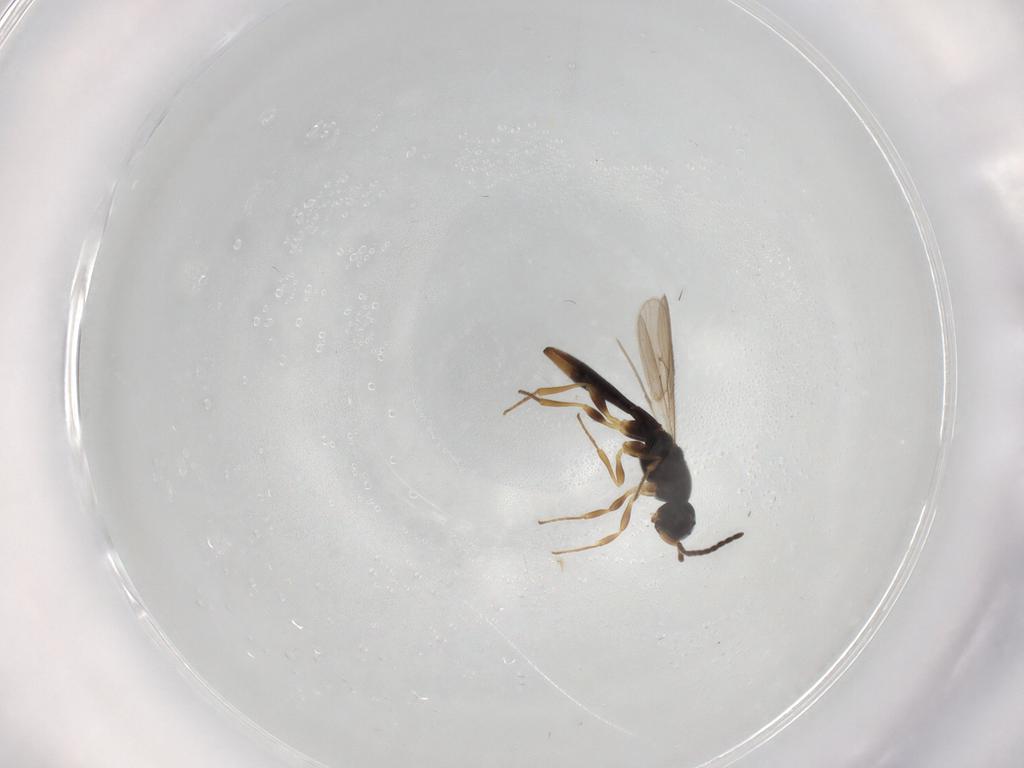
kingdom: Animalia
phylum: Arthropoda
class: Insecta
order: Hymenoptera
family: Scelionidae
